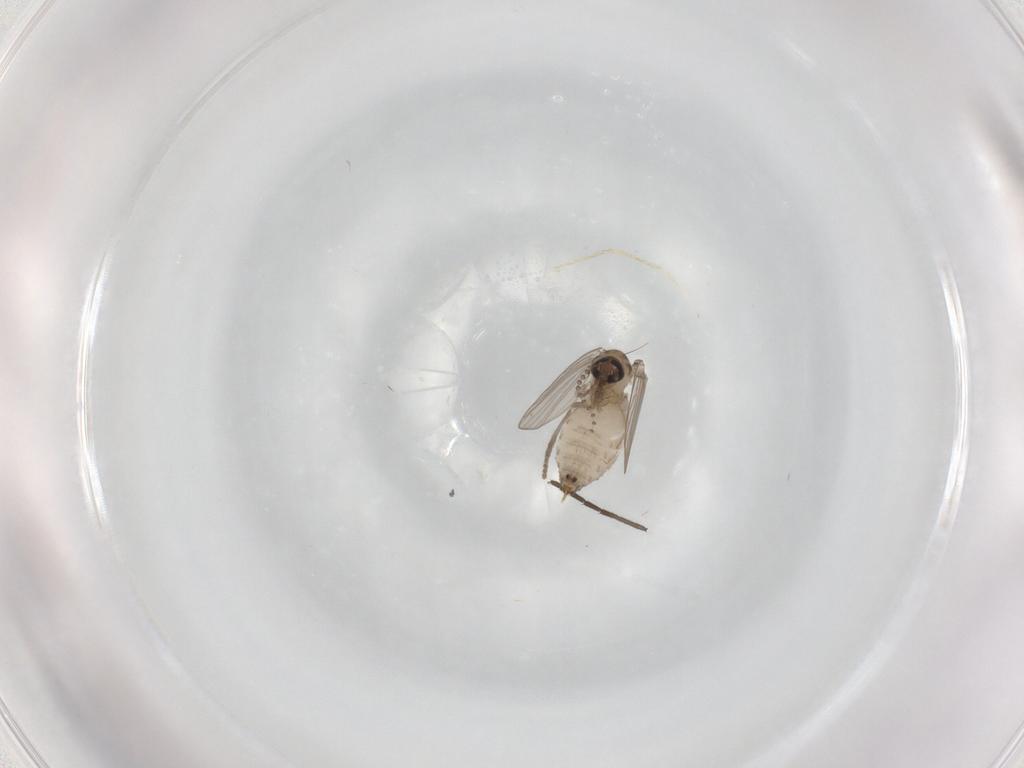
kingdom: Animalia
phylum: Arthropoda
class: Insecta
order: Diptera
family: Psychodidae
